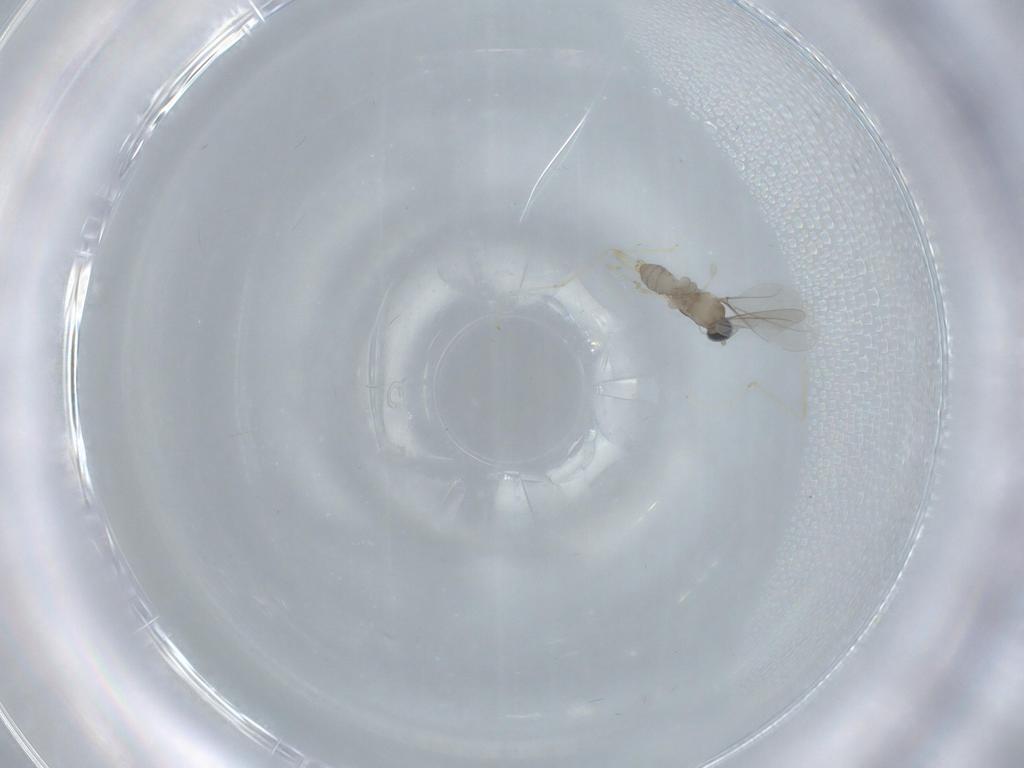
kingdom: Animalia
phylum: Arthropoda
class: Insecta
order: Diptera
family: Cecidomyiidae
